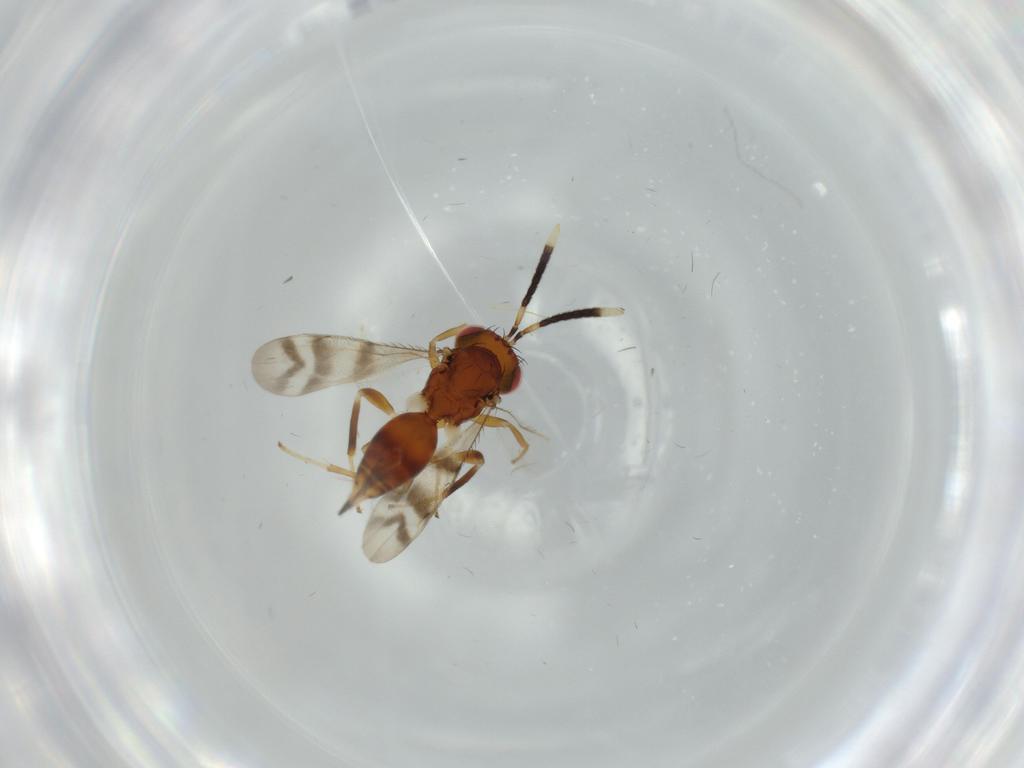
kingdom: Animalia
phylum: Arthropoda
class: Insecta
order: Hymenoptera
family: Diparidae
